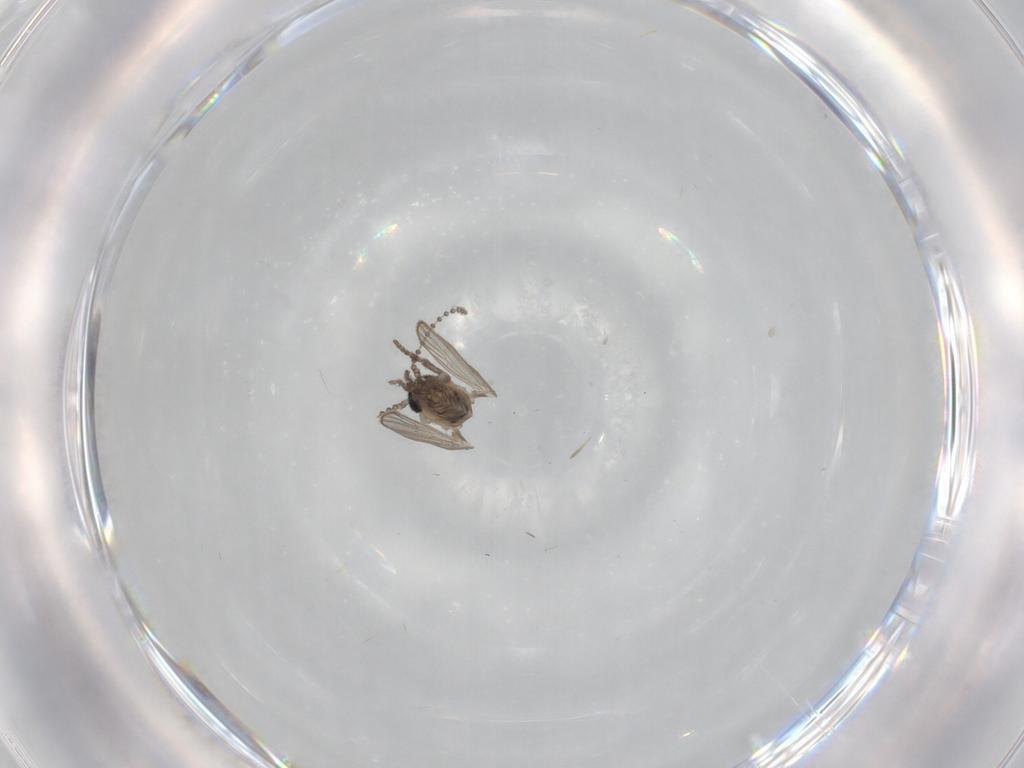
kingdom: Animalia
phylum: Arthropoda
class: Insecta
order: Diptera
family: Psychodidae
